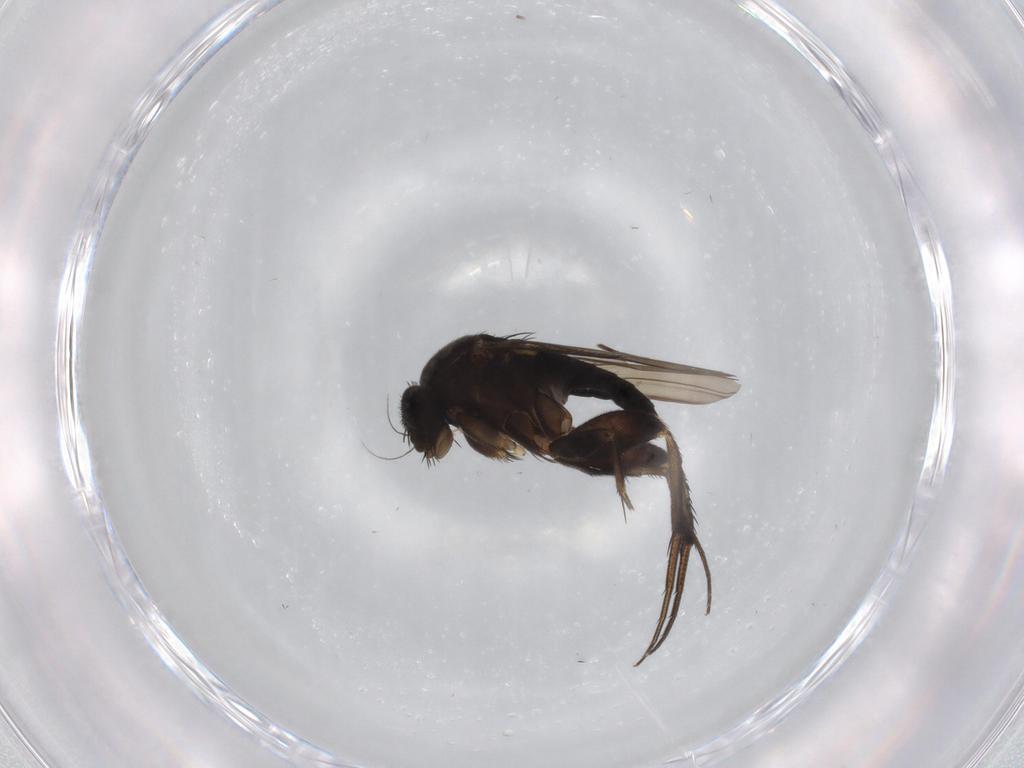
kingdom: Animalia
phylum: Arthropoda
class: Insecta
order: Diptera
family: Phoridae
